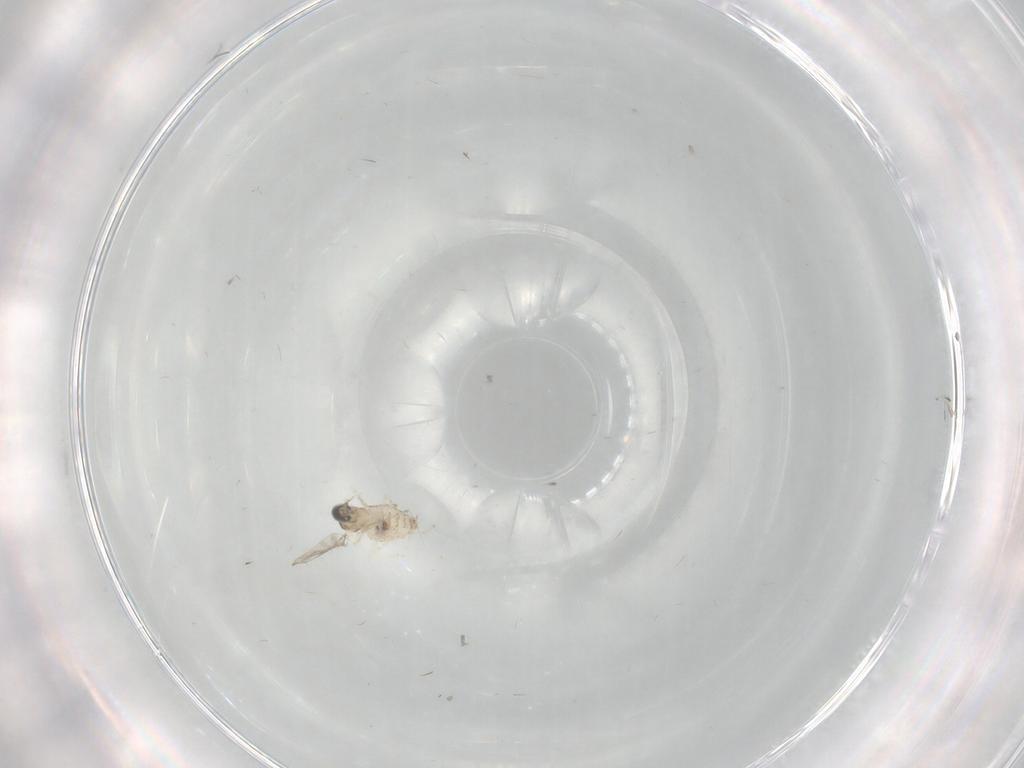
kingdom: Animalia
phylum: Arthropoda
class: Insecta
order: Diptera
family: Cecidomyiidae
